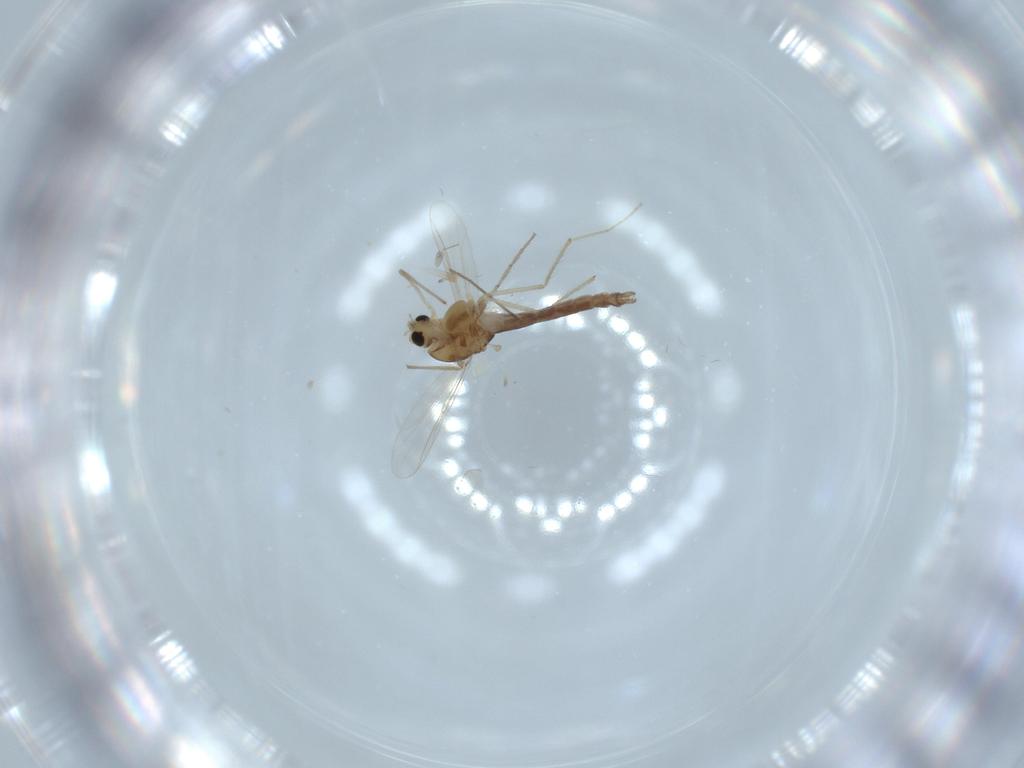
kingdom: Animalia
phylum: Arthropoda
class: Insecta
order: Diptera
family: Chironomidae
